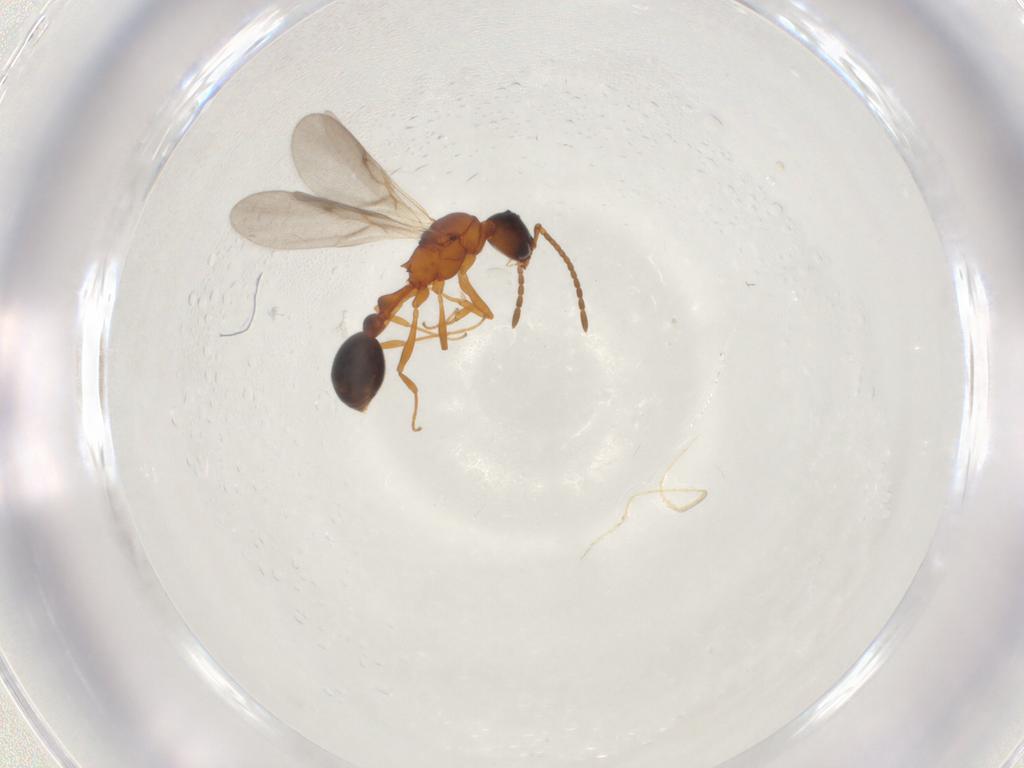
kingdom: Animalia
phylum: Arthropoda
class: Insecta
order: Hymenoptera
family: Formicidae
